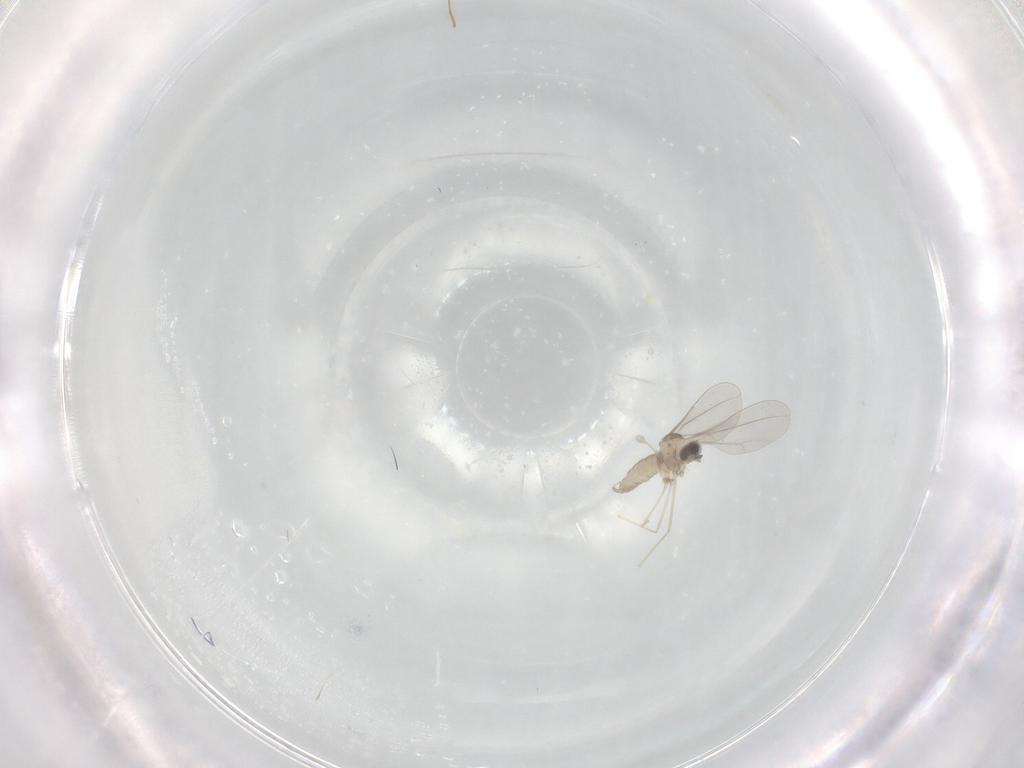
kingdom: Animalia
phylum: Arthropoda
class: Insecta
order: Diptera
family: Cecidomyiidae
